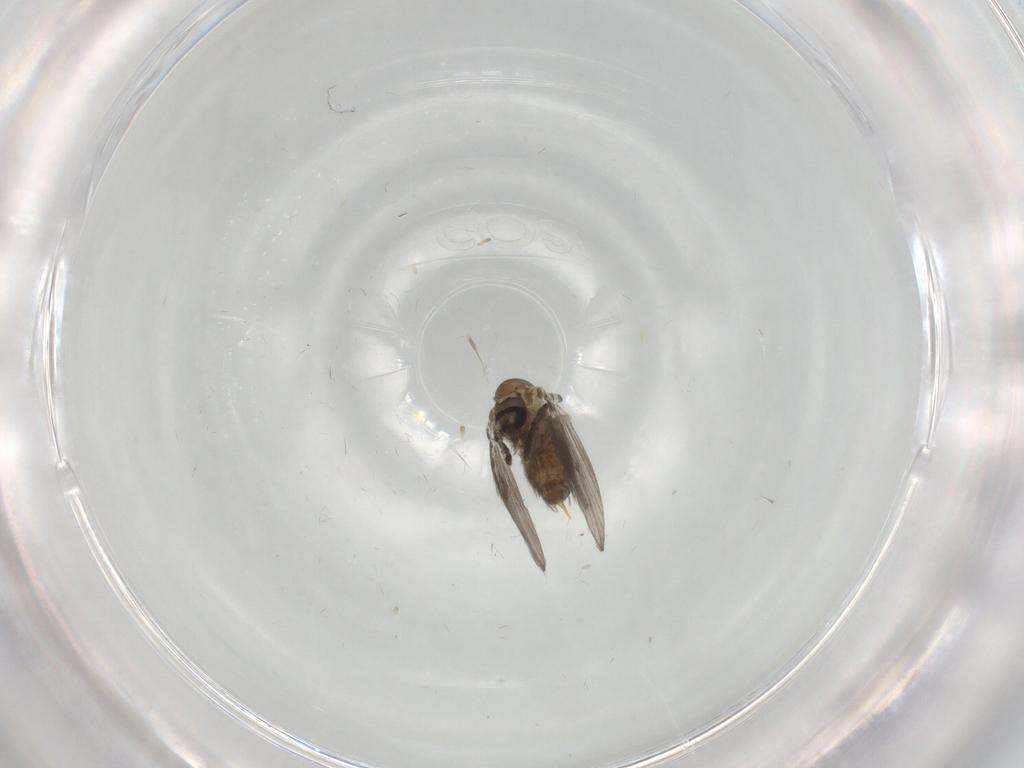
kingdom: Animalia
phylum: Arthropoda
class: Insecta
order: Diptera
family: Psychodidae
